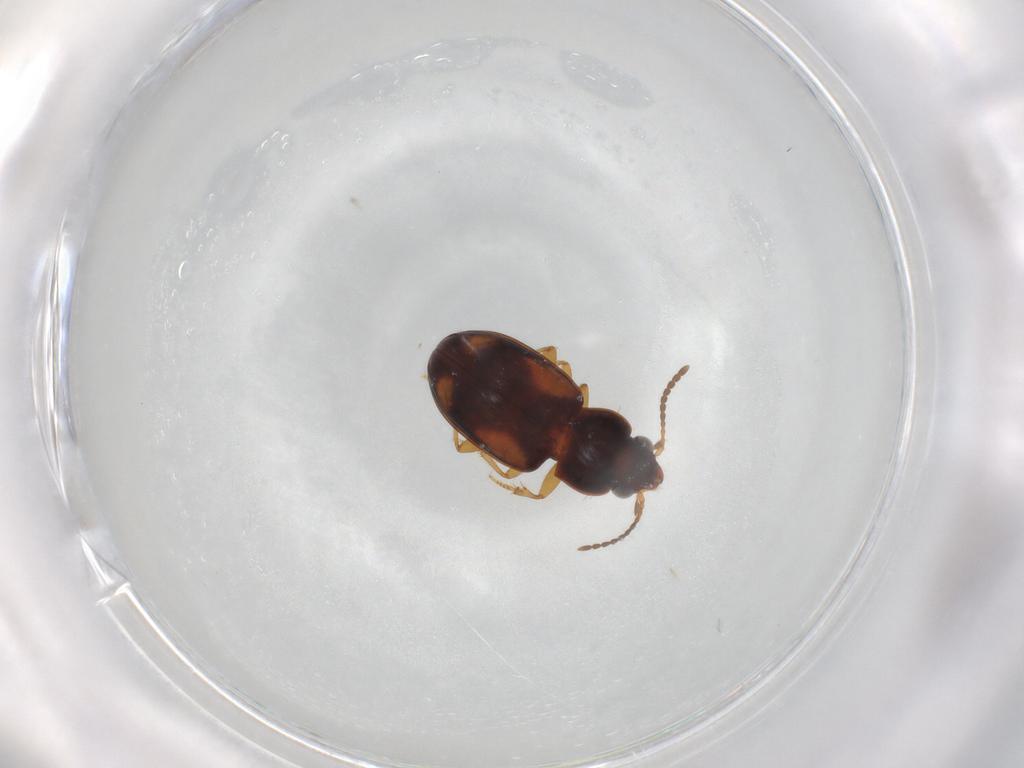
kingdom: Animalia
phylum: Arthropoda
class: Insecta
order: Coleoptera
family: Carabidae
